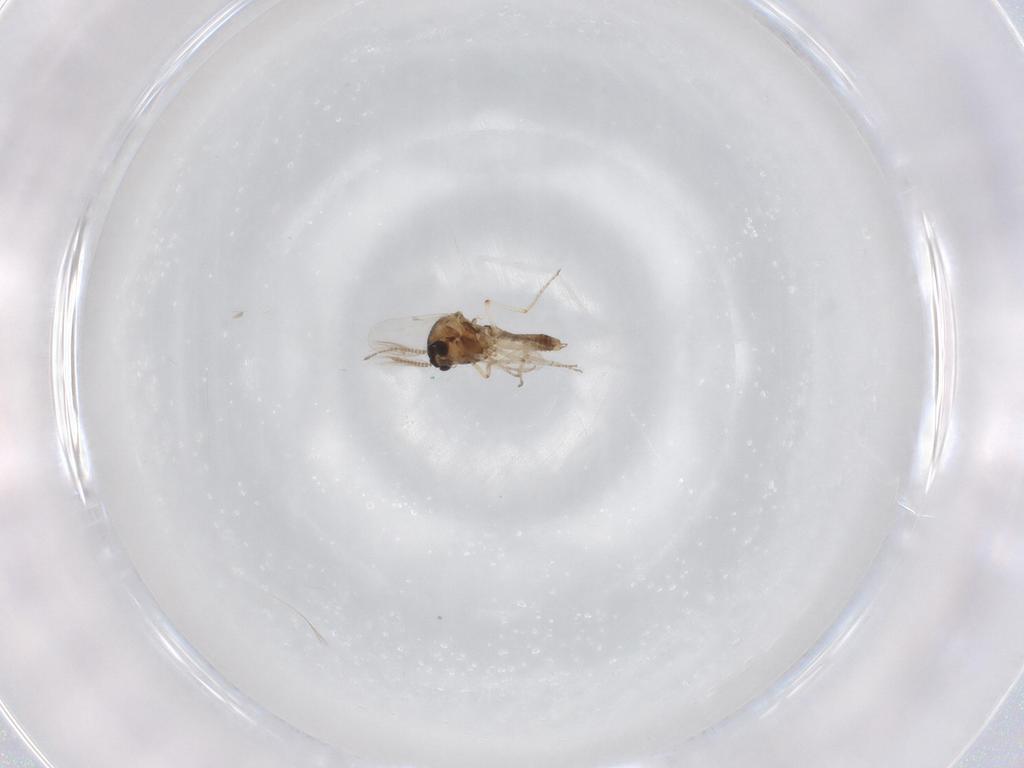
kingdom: Animalia
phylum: Arthropoda
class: Insecta
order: Diptera
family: Ceratopogonidae
